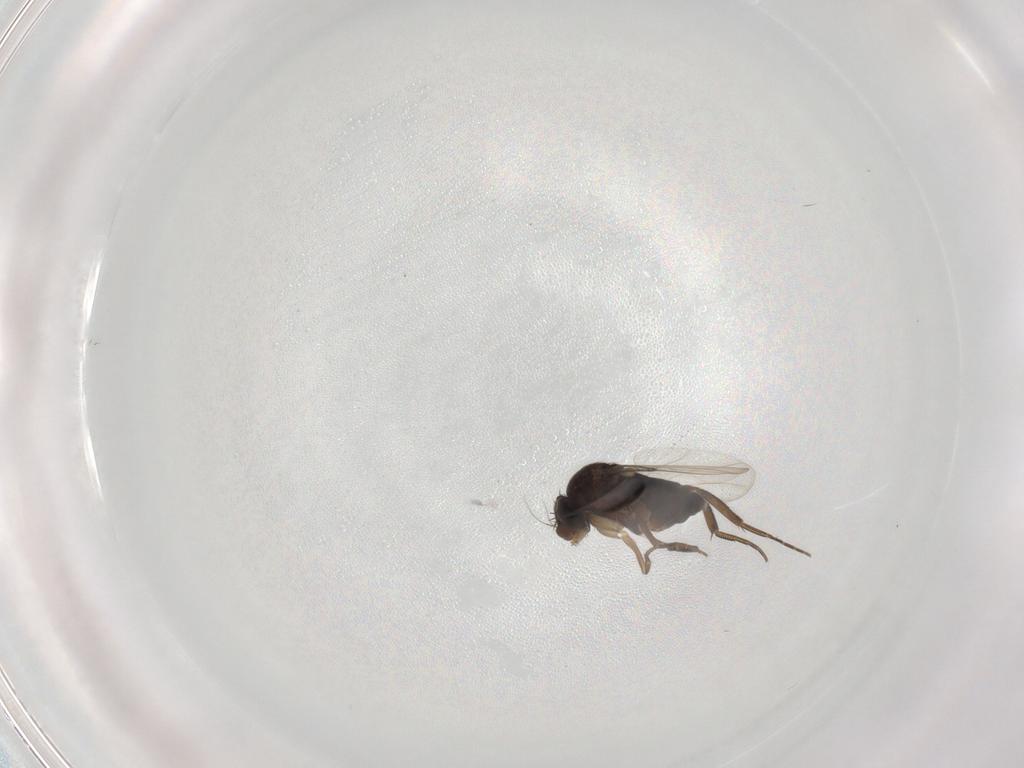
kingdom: Animalia
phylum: Arthropoda
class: Insecta
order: Diptera
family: Phoridae
